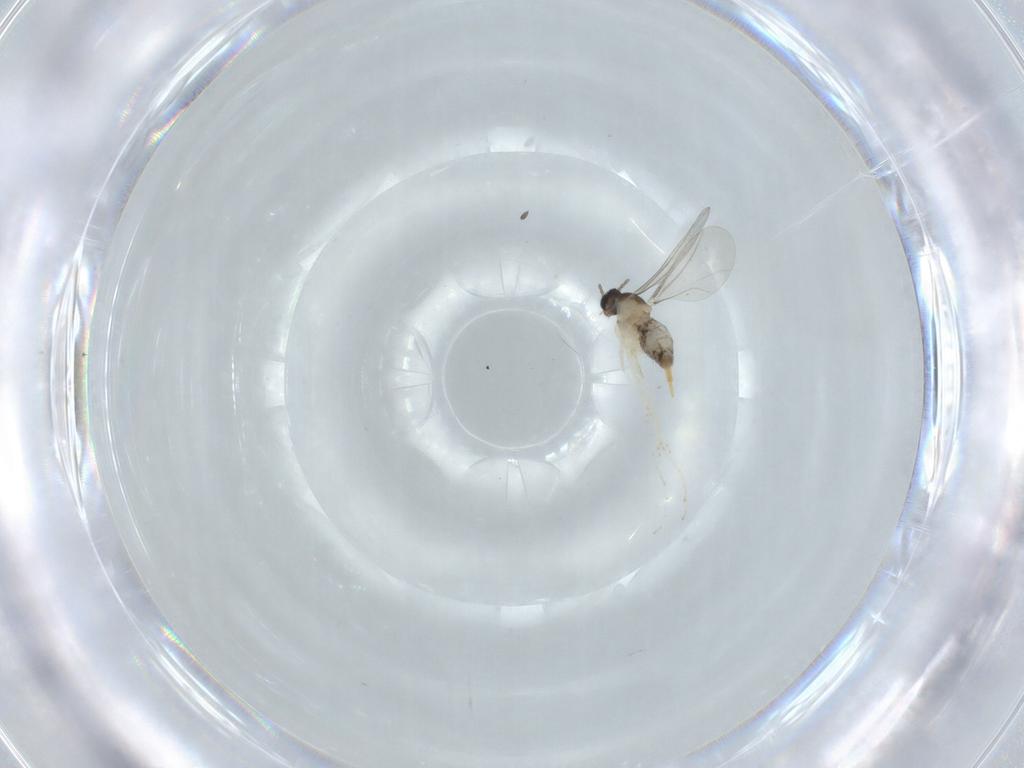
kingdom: Animalia
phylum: Arthropoda
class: Insecta
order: Diptera
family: Cecidomyiidae
